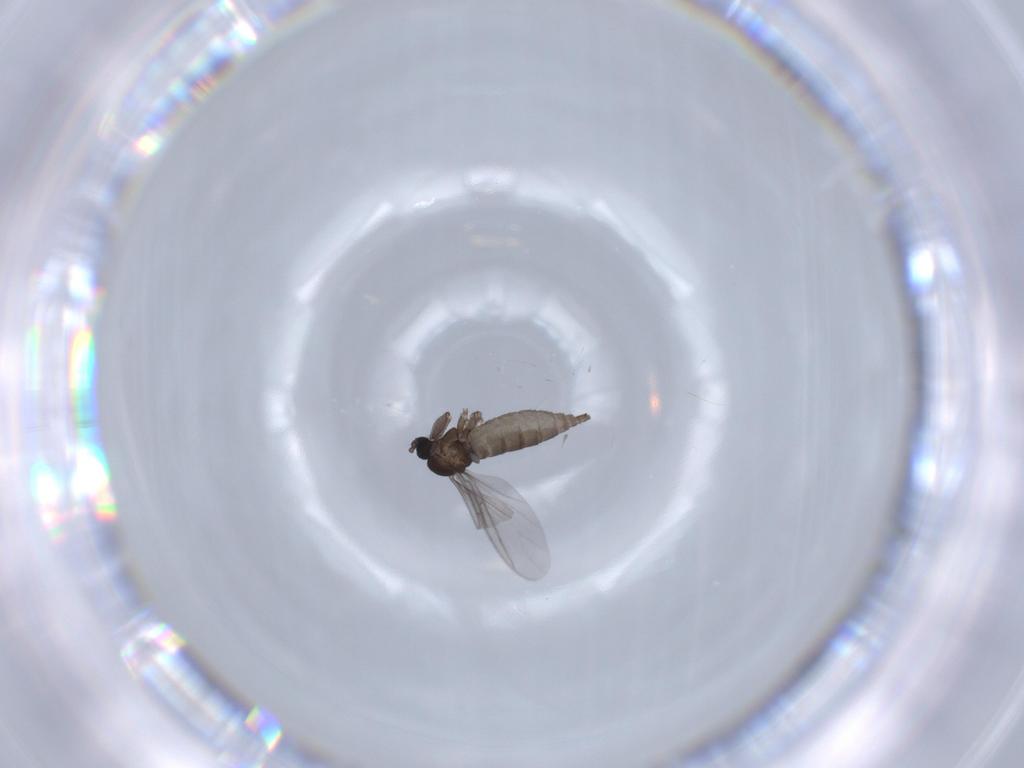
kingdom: Animalia
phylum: Arthropoda
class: Insecta
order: Diptera
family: Sciaridae
